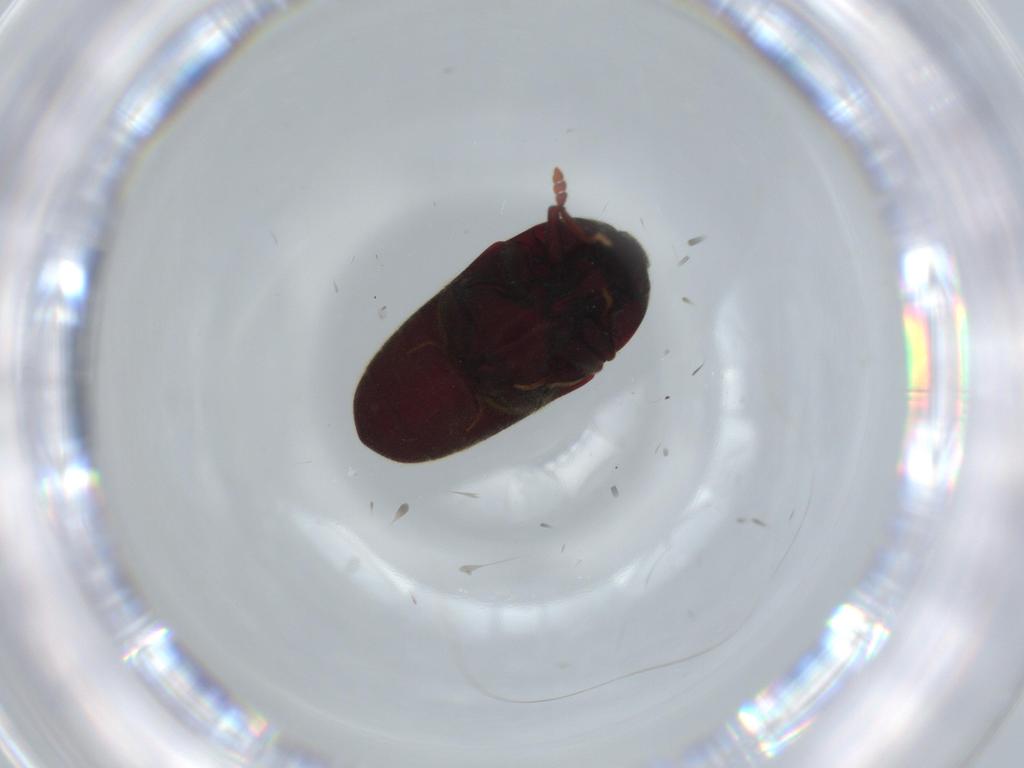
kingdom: Animalia
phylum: Arthropoda
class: Insecta
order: Coleoptera
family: Throscidae
